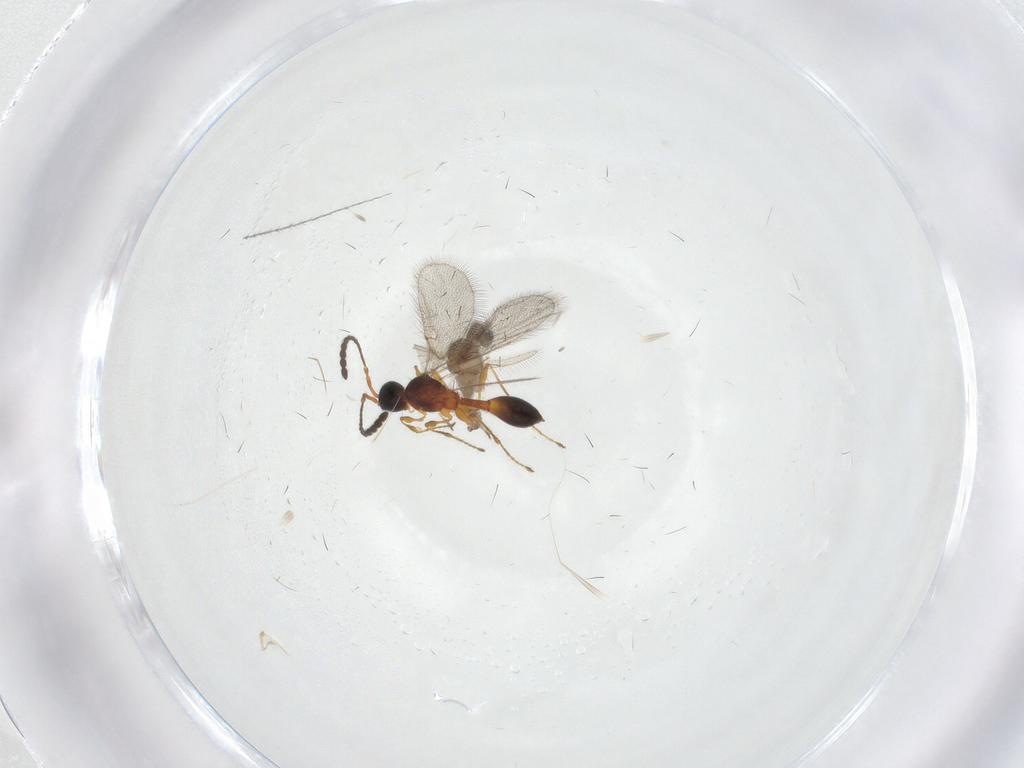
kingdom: Animalia
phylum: Arthropoda
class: Insecta
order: Diptera
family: Cecidomyiidae
